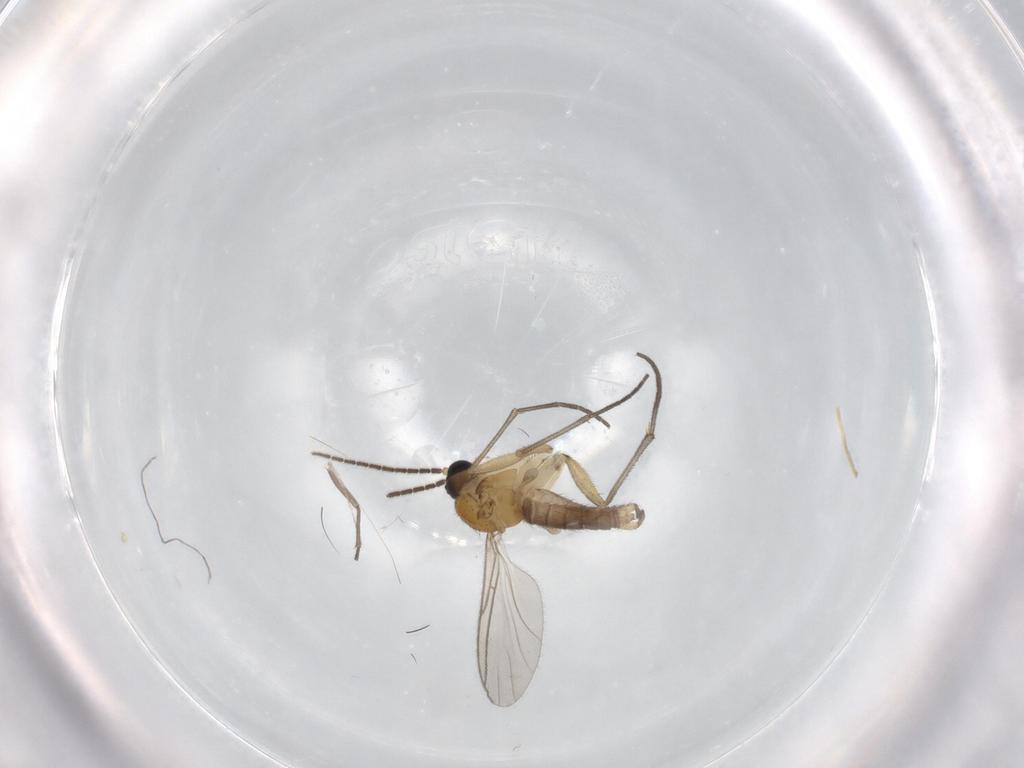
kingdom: Animalia
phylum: Arthropoda
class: Insecta
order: Diptera
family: Sciaridae
